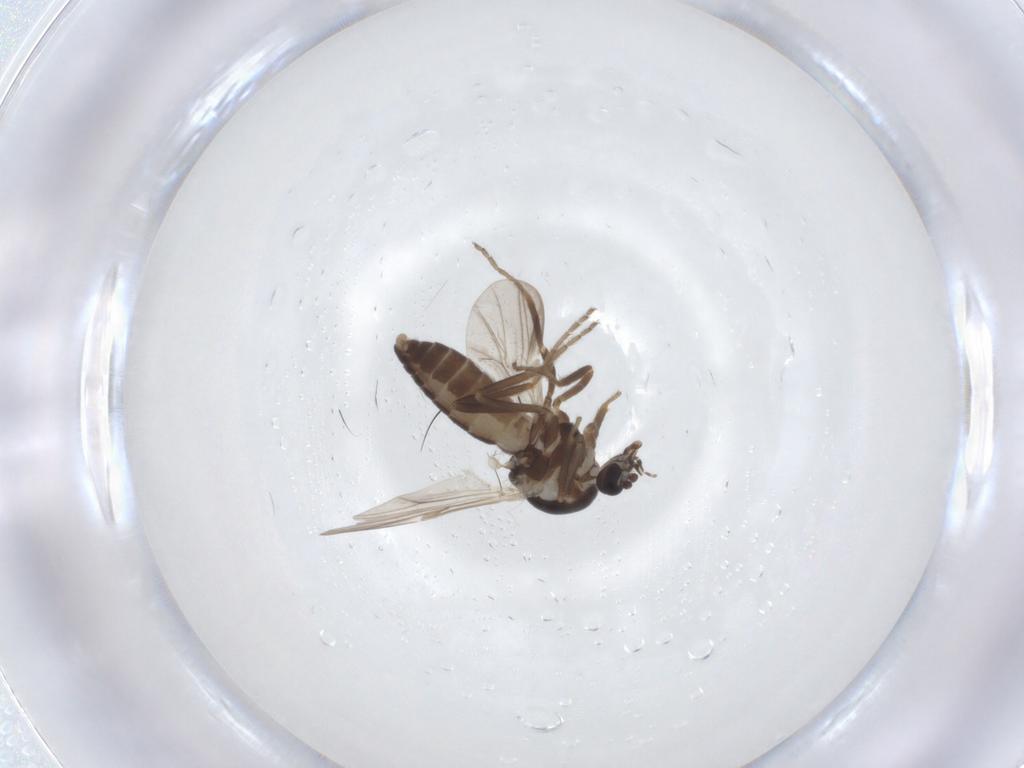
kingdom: Animalia
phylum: Arthropoda
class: Insecta
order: Diptera
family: Ceratopogonidae
